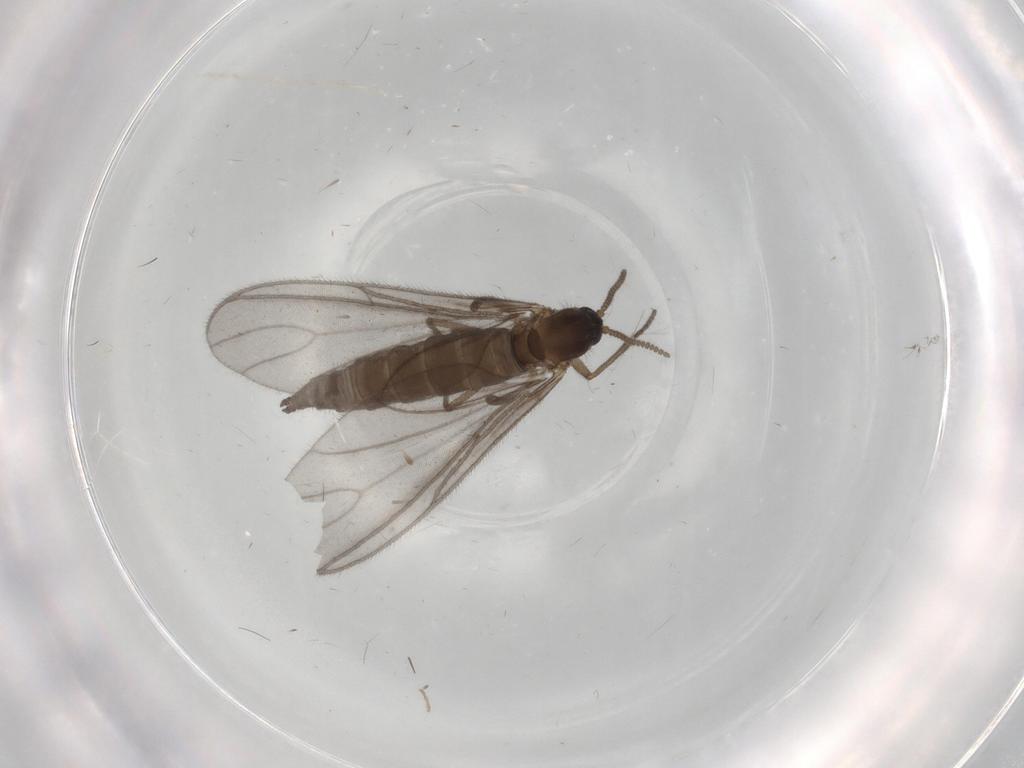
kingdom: Animalia
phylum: Arthropoda
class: Insecta
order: Diptera
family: Sciaridae
